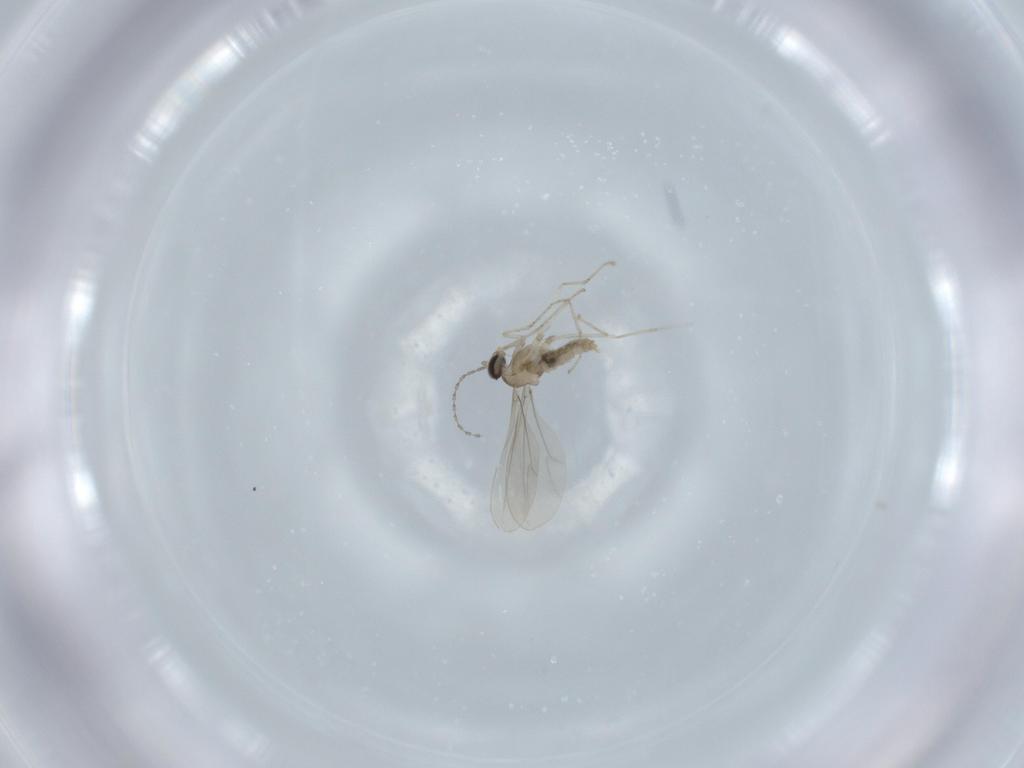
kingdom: Animalia
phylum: Arthropoda
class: Insecta
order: Diptera
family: Cecidomyiidae
